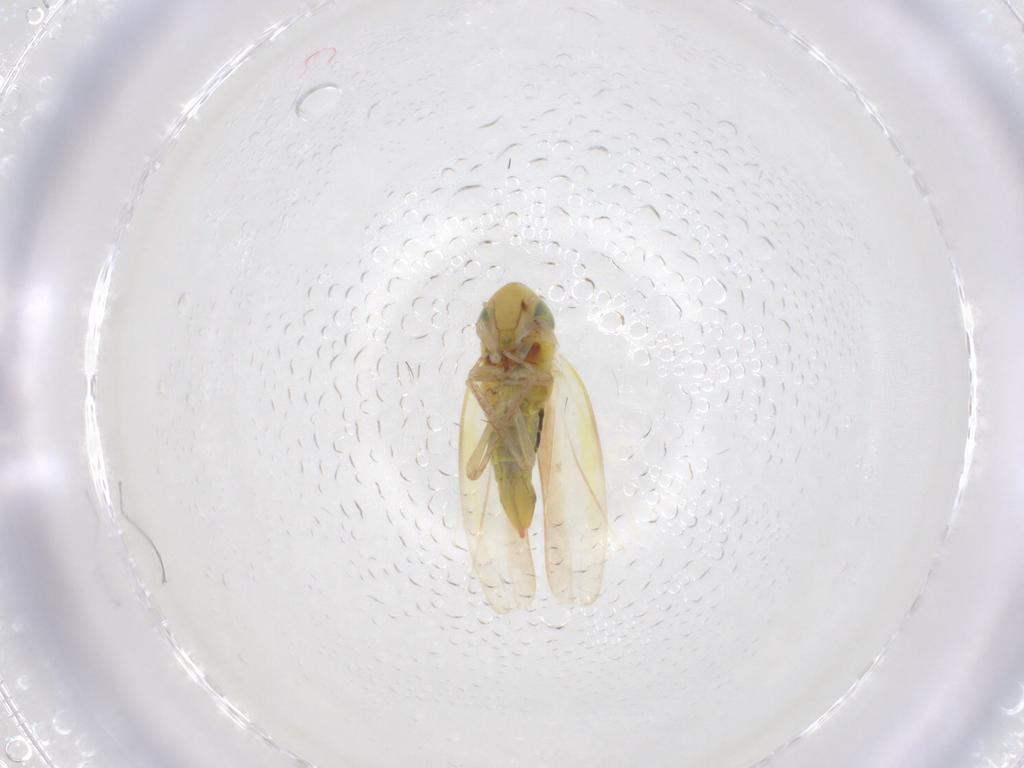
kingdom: Animalia
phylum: Arthropoda
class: Insecta
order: Hemiptera
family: Cicadellidae
